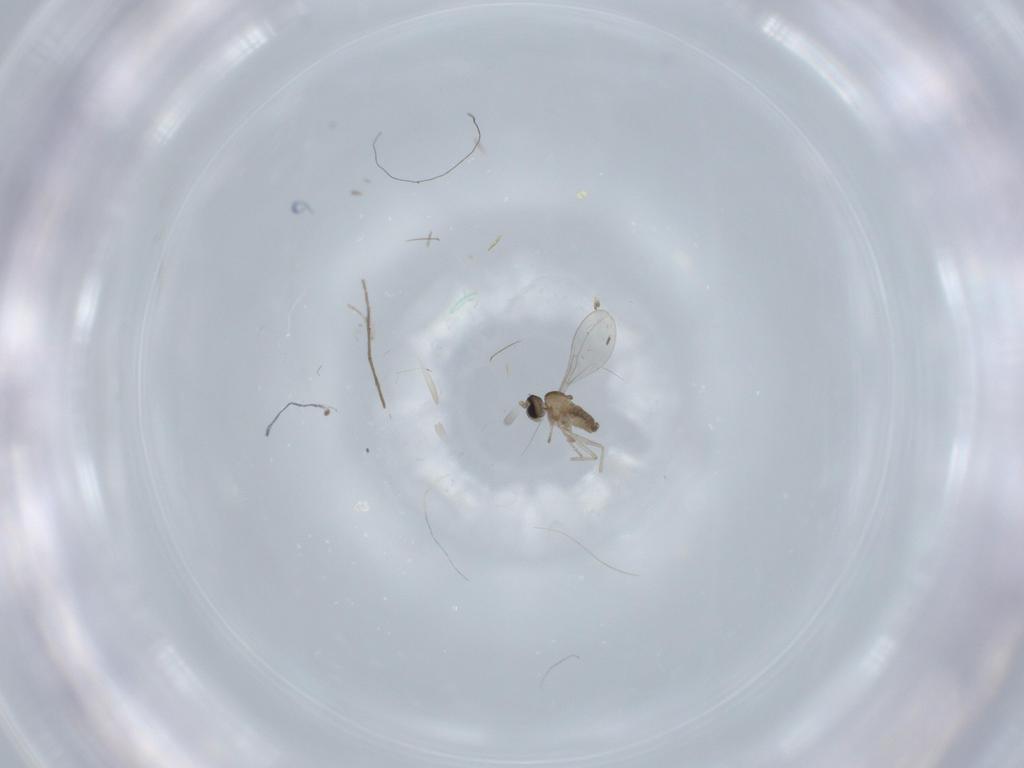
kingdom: Animalia
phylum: Arthropoda
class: Insecta
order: Diptera
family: Cecidomyiidae
